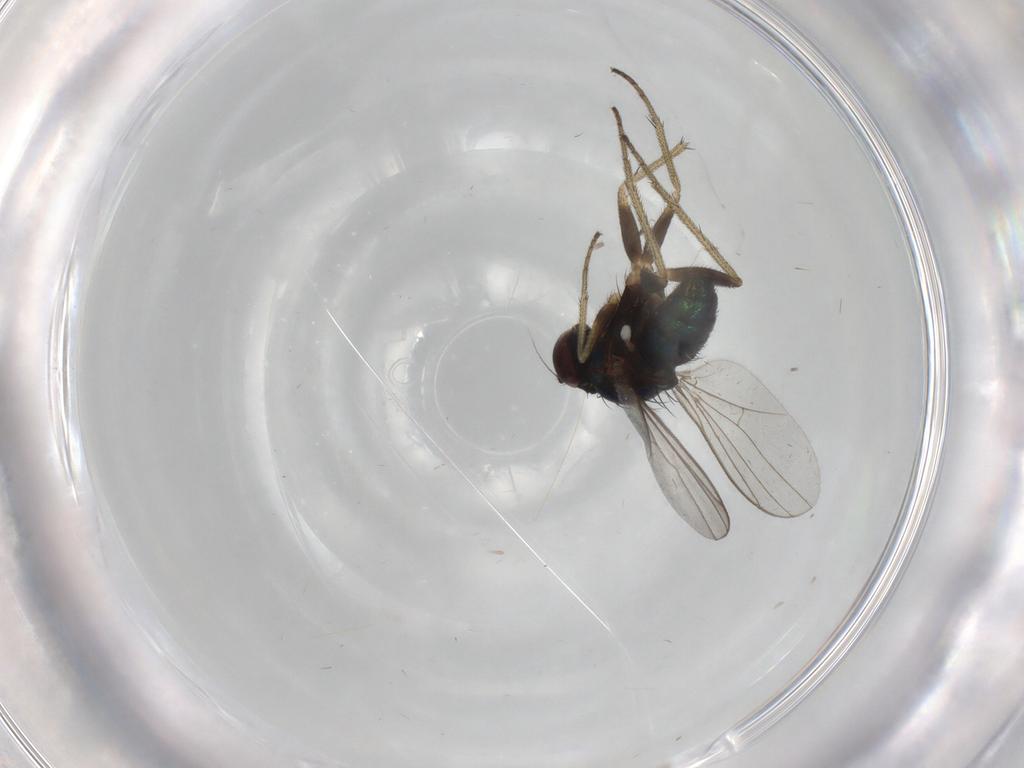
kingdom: Animalia
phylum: Arthropoda
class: Insecta
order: Diptera
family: Dolichopodidae
